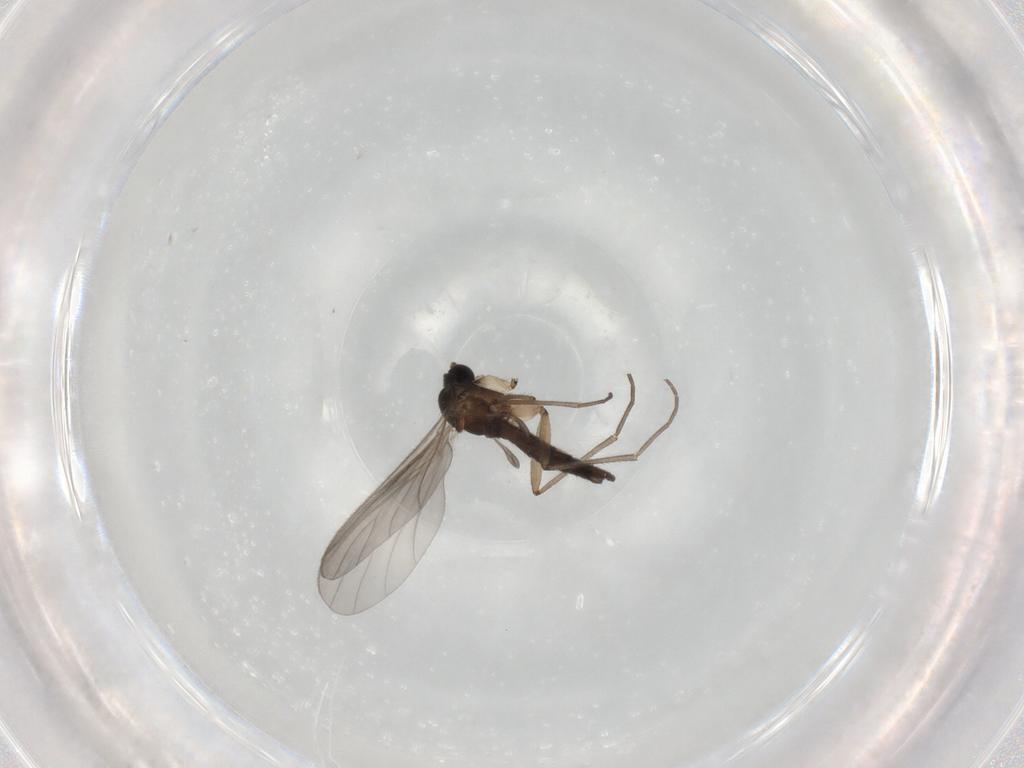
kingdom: Animalia
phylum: Arthropoda
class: Insecta
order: Diptera
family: Sciaridae
